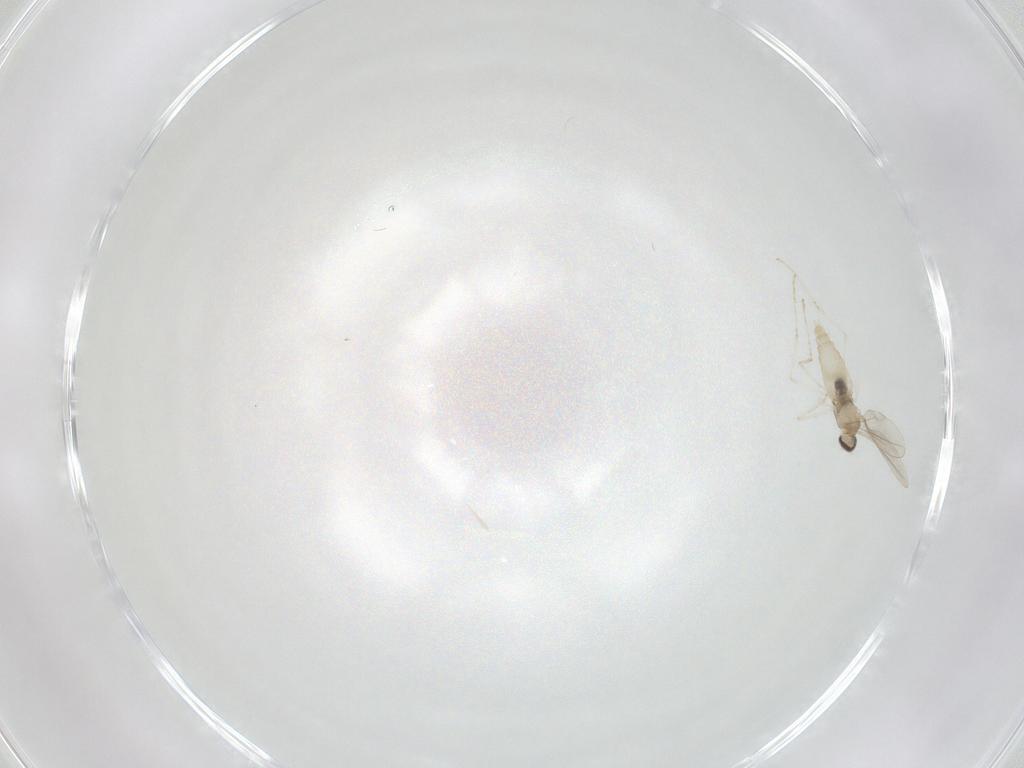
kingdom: Animalia
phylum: Arthropoda
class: Insecta
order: Diptera
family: Cecidomyiidae
